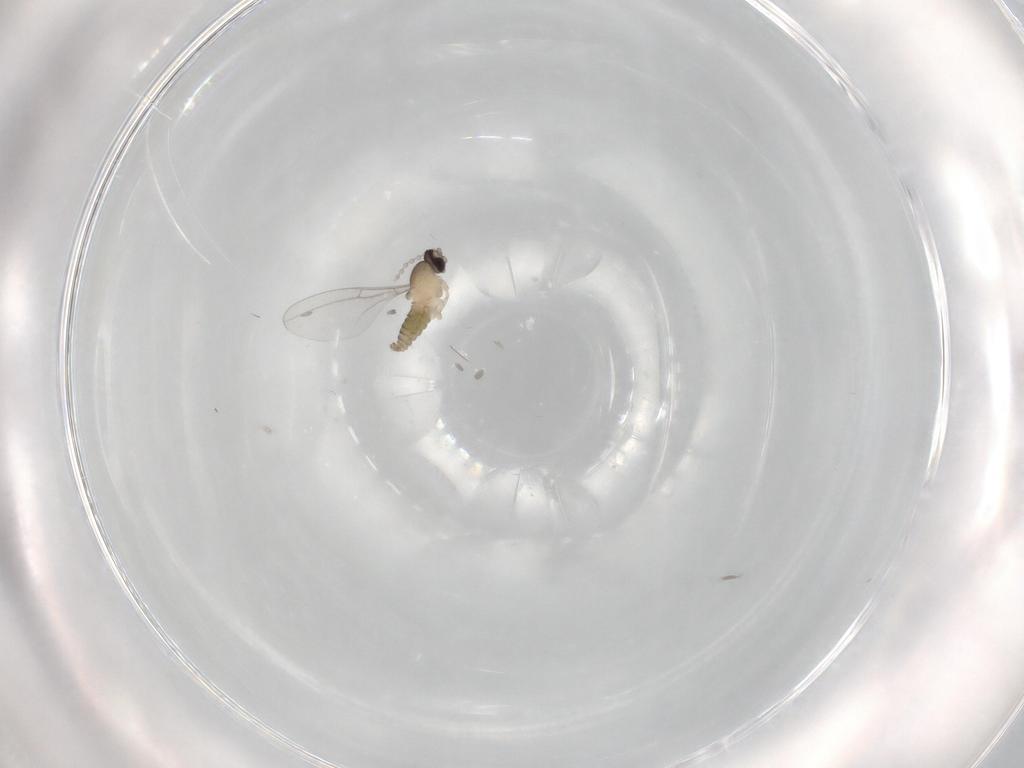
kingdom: Animalia
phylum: Arthropoda
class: Insecta
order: Diptera
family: Cecidomyiidae
